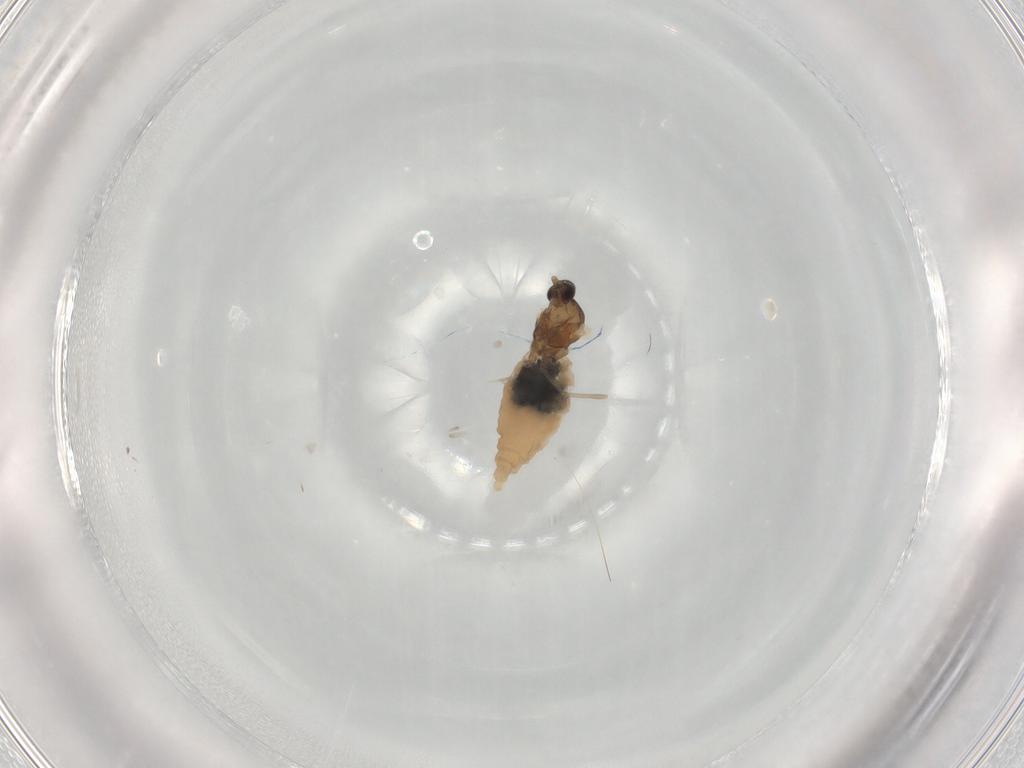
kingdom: Animalia
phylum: Arthropoda
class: Insecta
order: Diptera
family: Cecidomyiidae
